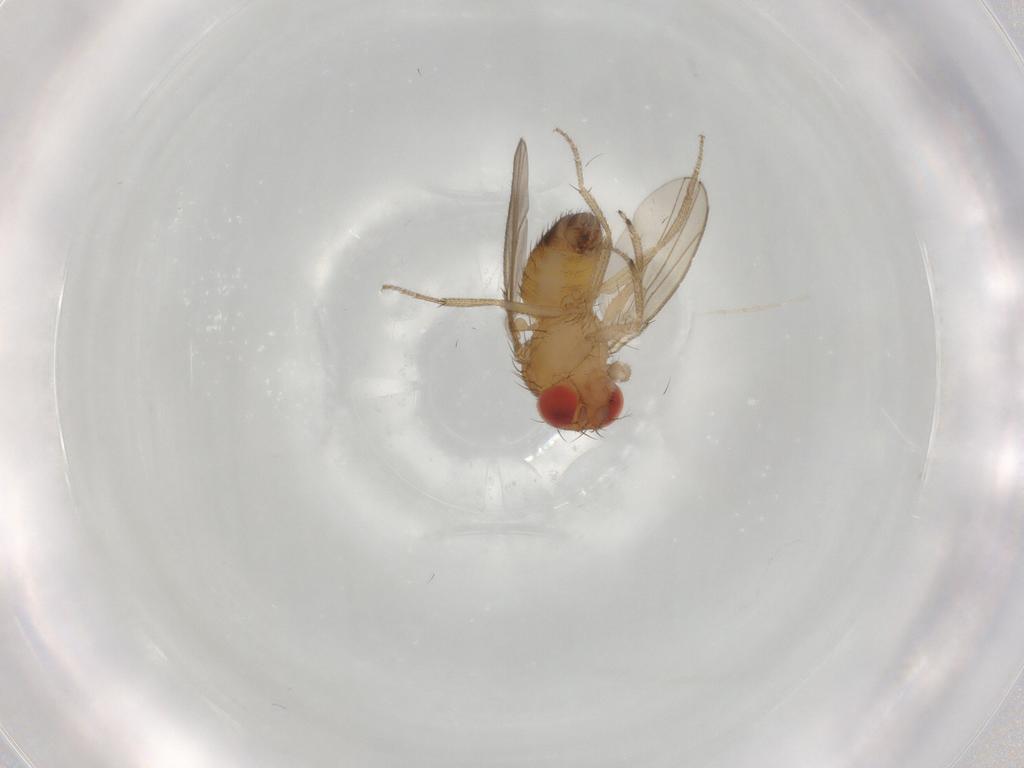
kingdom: Animalia
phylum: Arthropoda
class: Insecta
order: Diptera
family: Drosophilidae
